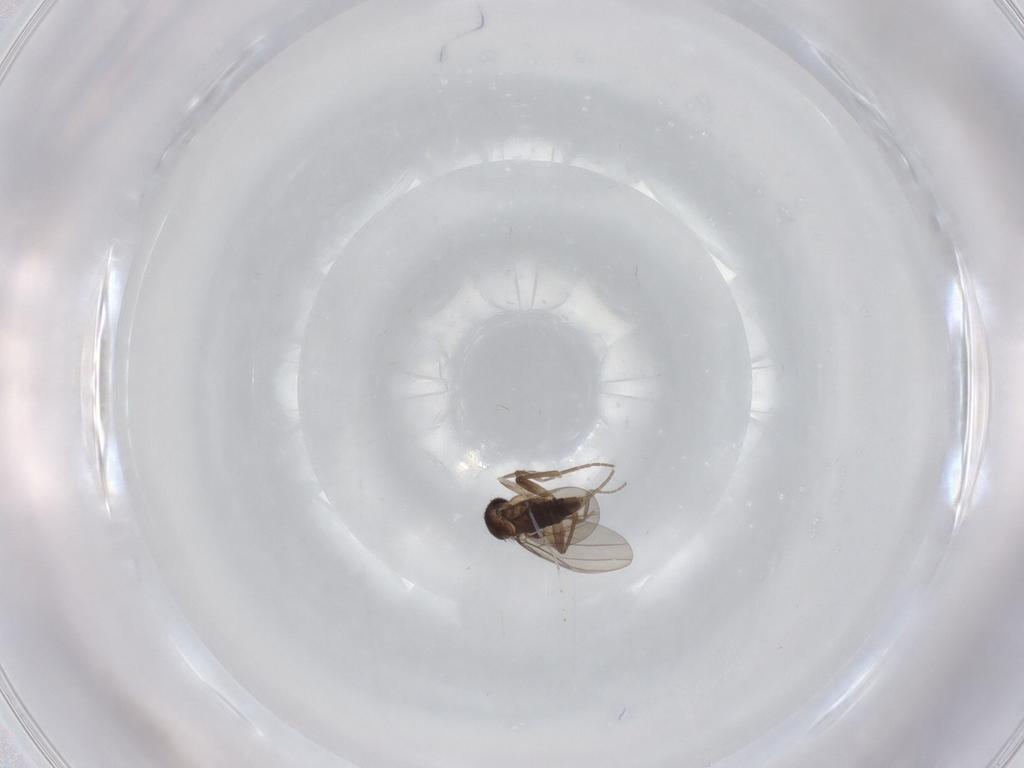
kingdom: Animalia
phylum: Arthropoda
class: Insecta
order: Diptera
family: Phoridae
